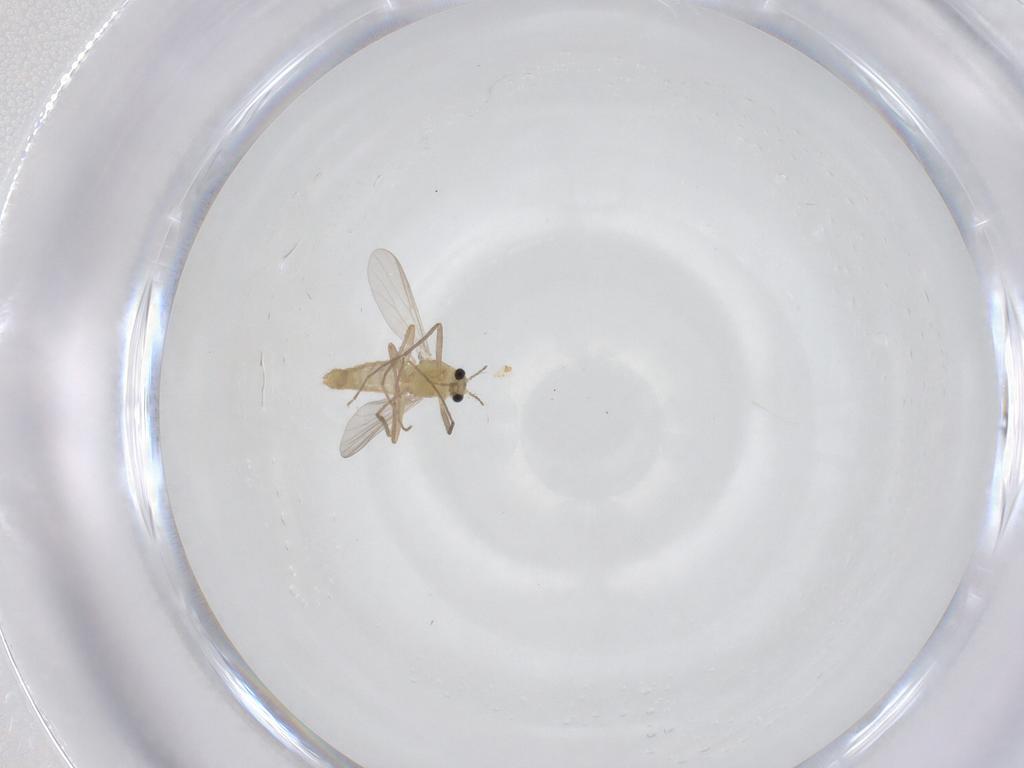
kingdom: Animalia
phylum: Arthropoda
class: Insecta
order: Diptera
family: Chironomidae
